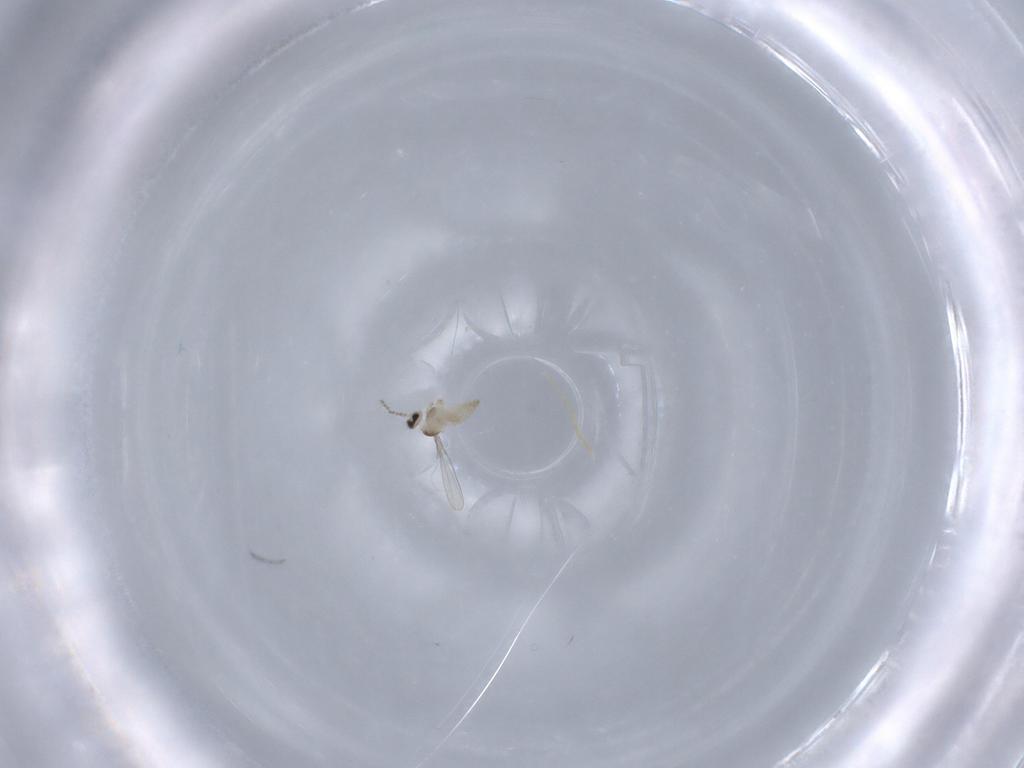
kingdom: Animalia
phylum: Arthropoda
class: Insecta
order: Diptera
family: Cecidomyiidae
